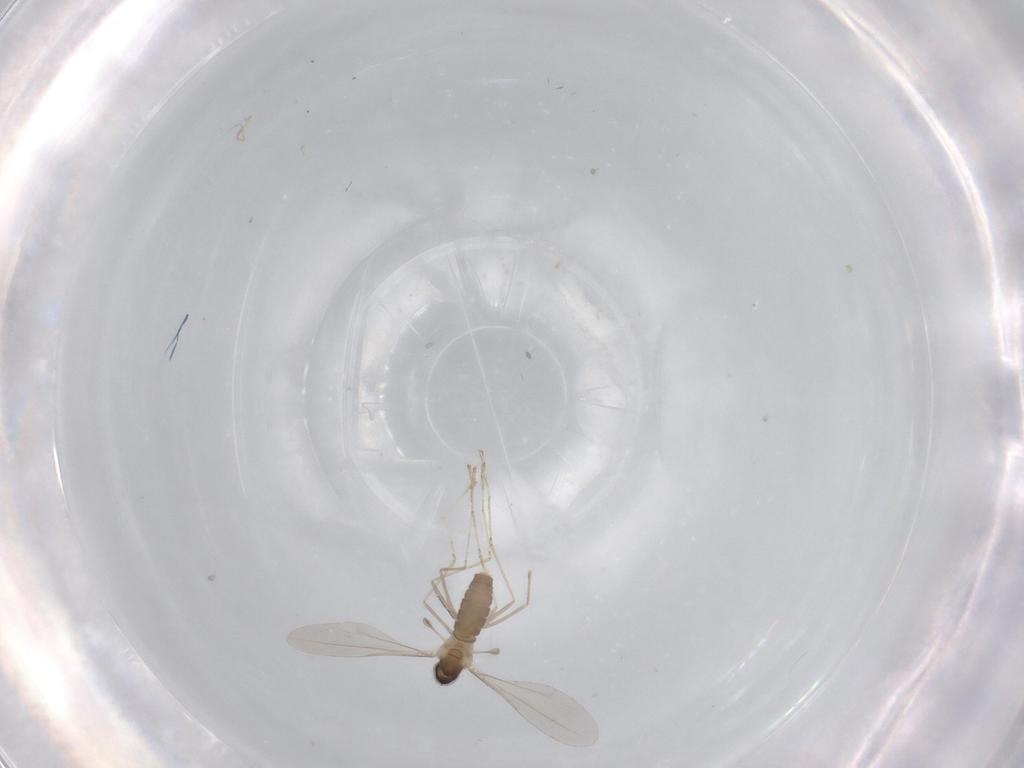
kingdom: Animalia
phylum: Arthropoda
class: Insecta
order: Diptera
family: Cecidomyiidae
